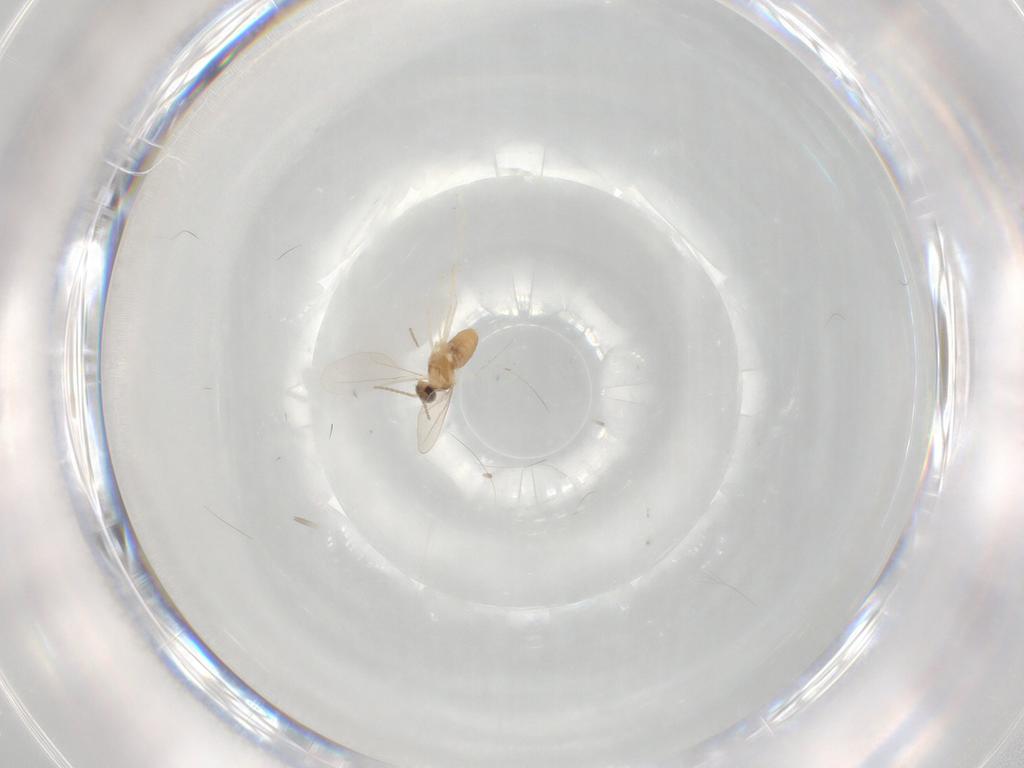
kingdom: Animalia
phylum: Arthropoda
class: Insecta
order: Diptera
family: Cecidomyiidae
